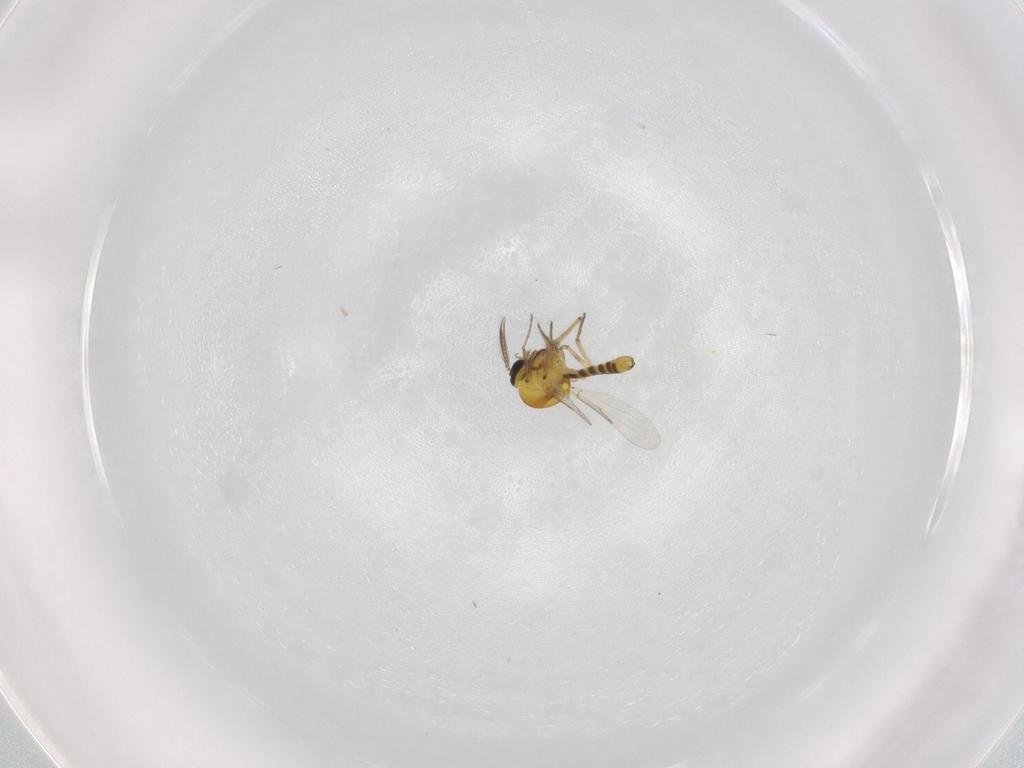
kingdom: Animalia
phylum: Arthropoda
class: Insecta
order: Diptera
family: Ceratopogonidae
